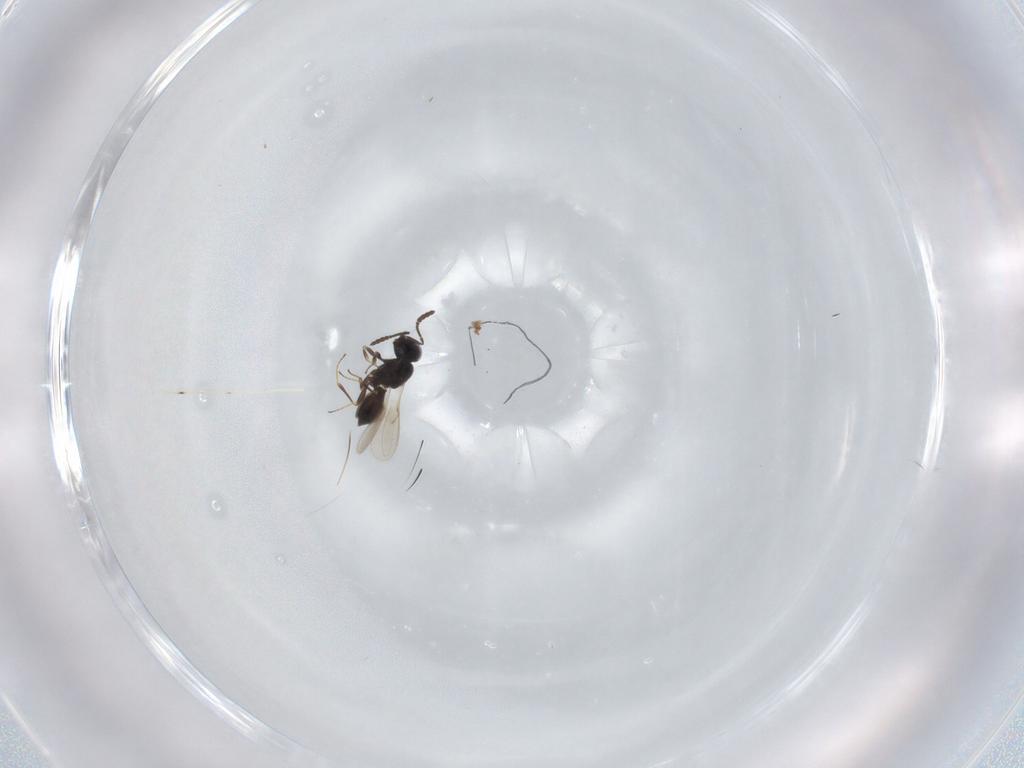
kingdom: Animalia
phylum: Arthropoda
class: Insecta
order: Hymenoptera
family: Scelionidae
